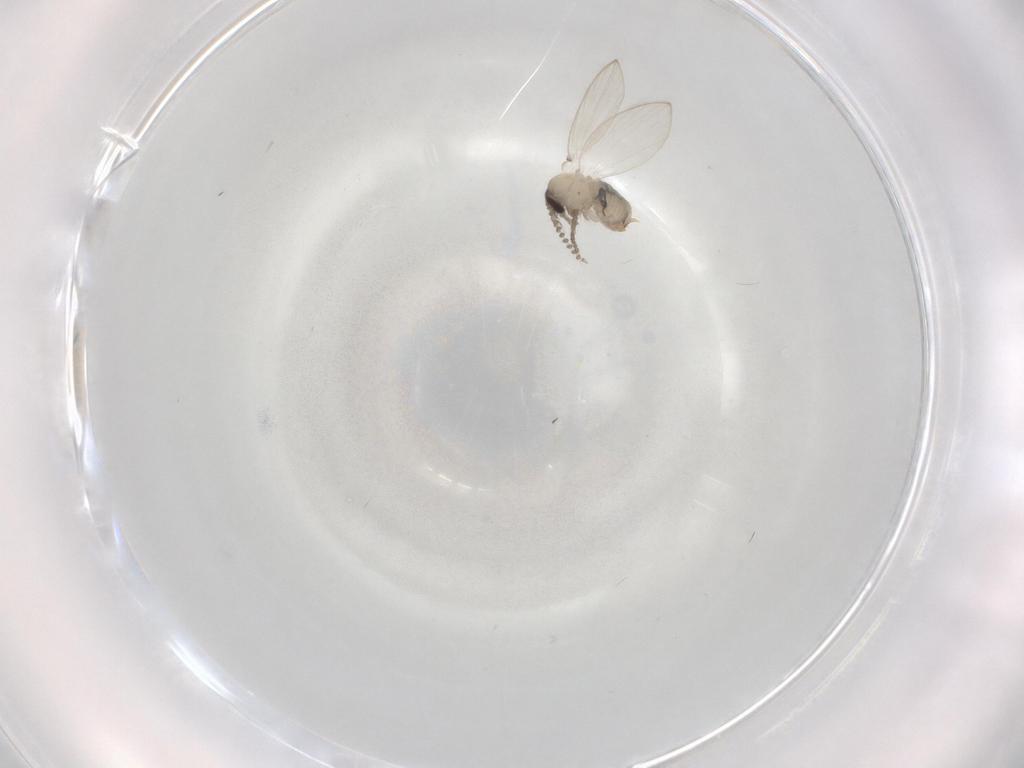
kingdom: Animalia
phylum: Arthropoda
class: Insecta
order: Diptera
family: Psychodidae
